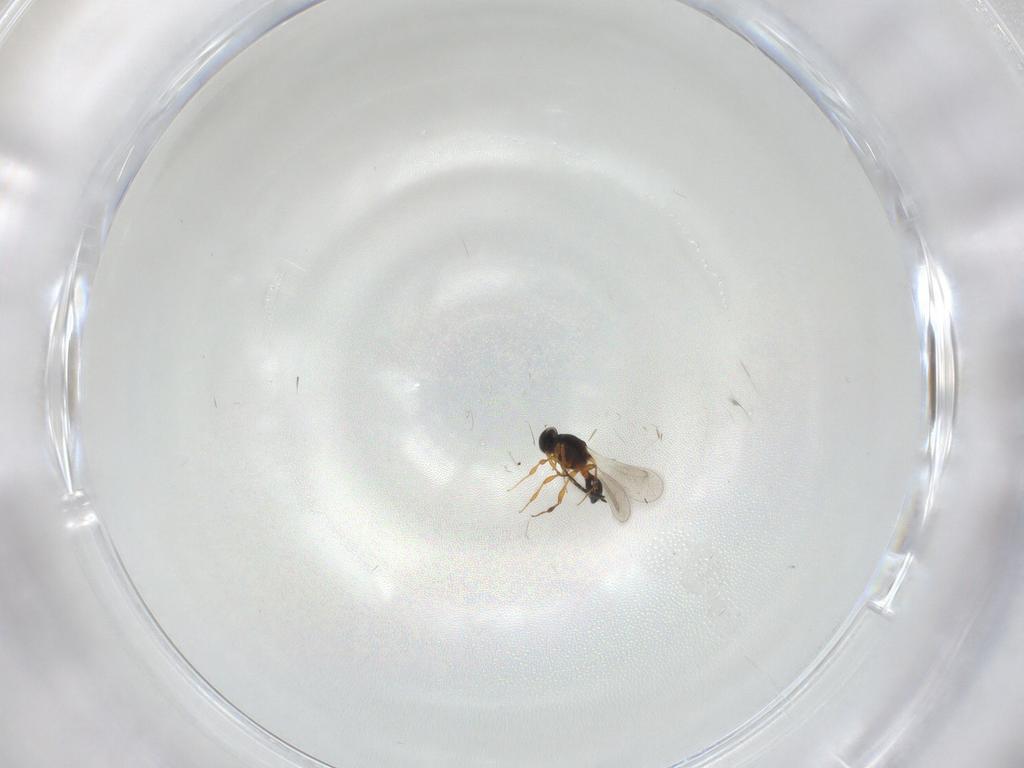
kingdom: Animalia
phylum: Arthropoda
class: Insecta
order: Hymenoptera
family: Platygastridae
